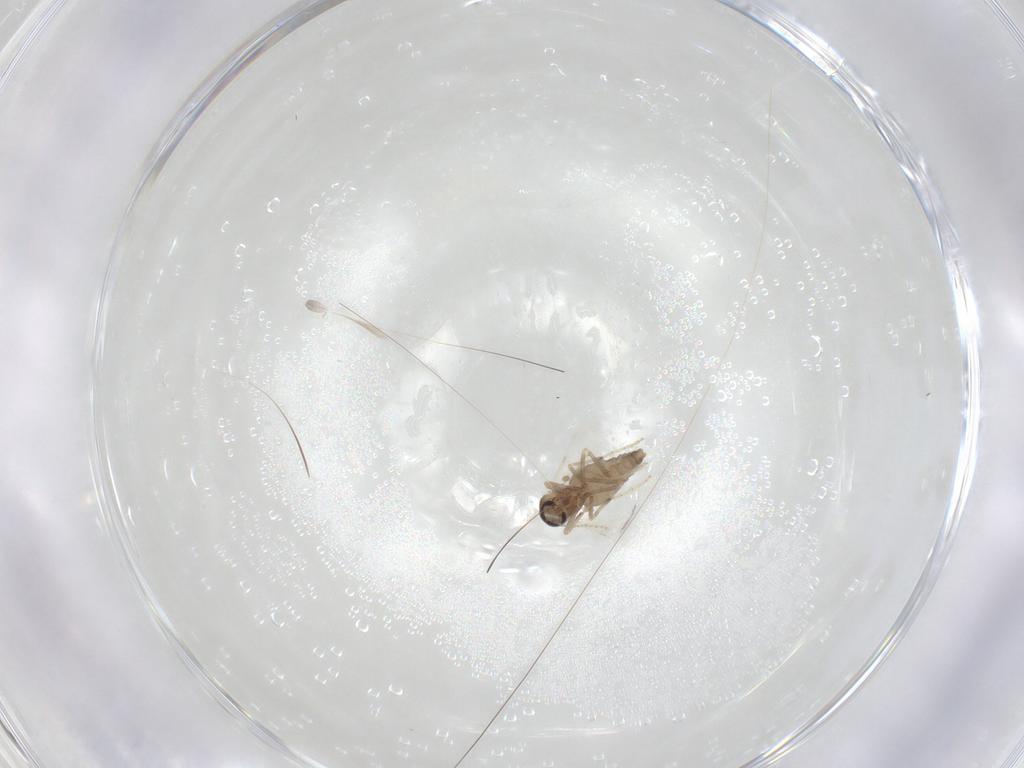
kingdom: Animalia
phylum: Arthropoda
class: Insecta
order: Diptera
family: Ceratopogonidae
